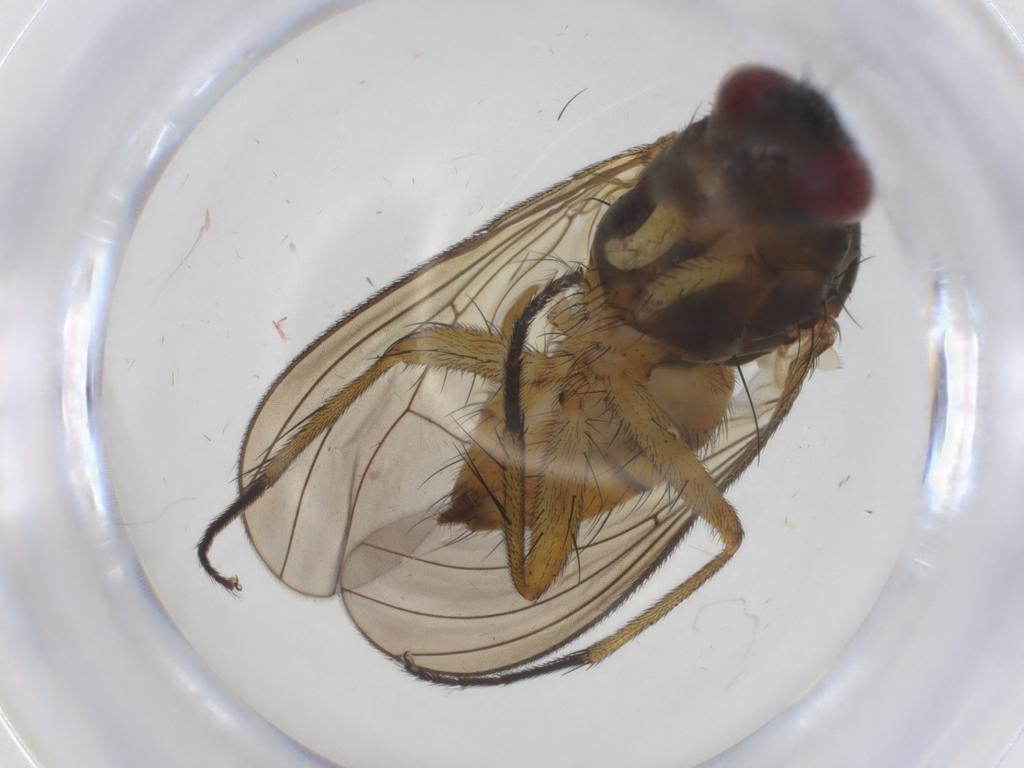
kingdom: Animalia
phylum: Arthropoda
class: Insecta
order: Diptera
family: Muscidae
